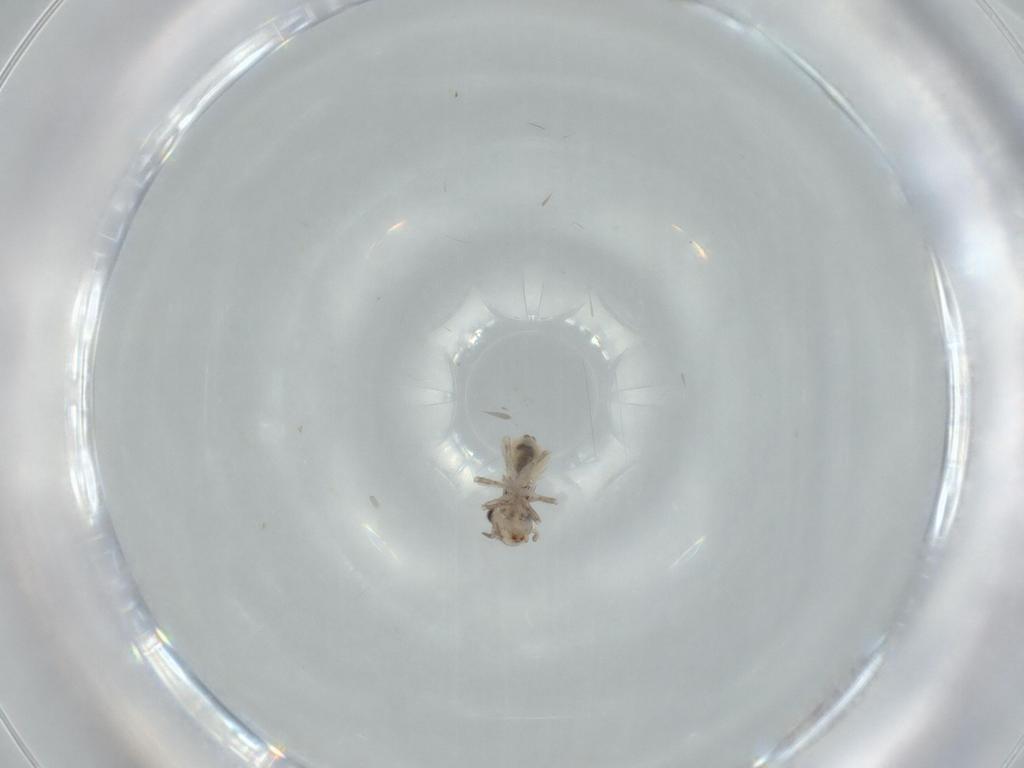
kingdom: Animalia
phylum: Arthropoda
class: Insecta
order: Psocodea
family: Lepidopsocidae
